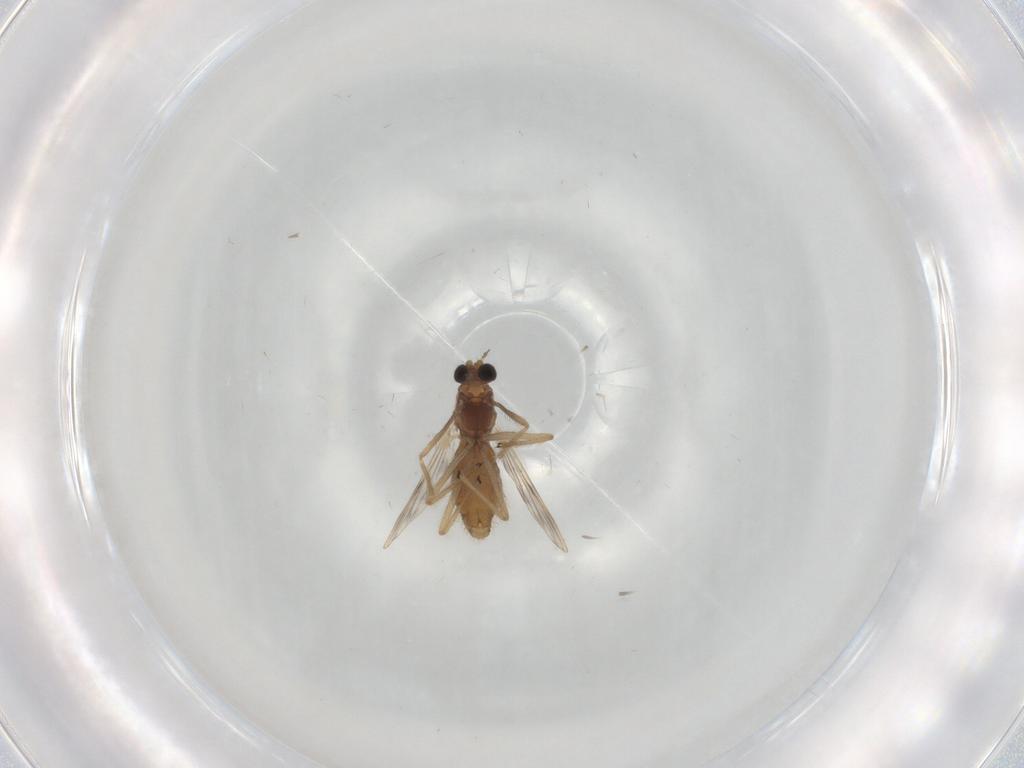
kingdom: Animalia
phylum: Arthropoda
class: Insecta
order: Diptera
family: Chironomidae
